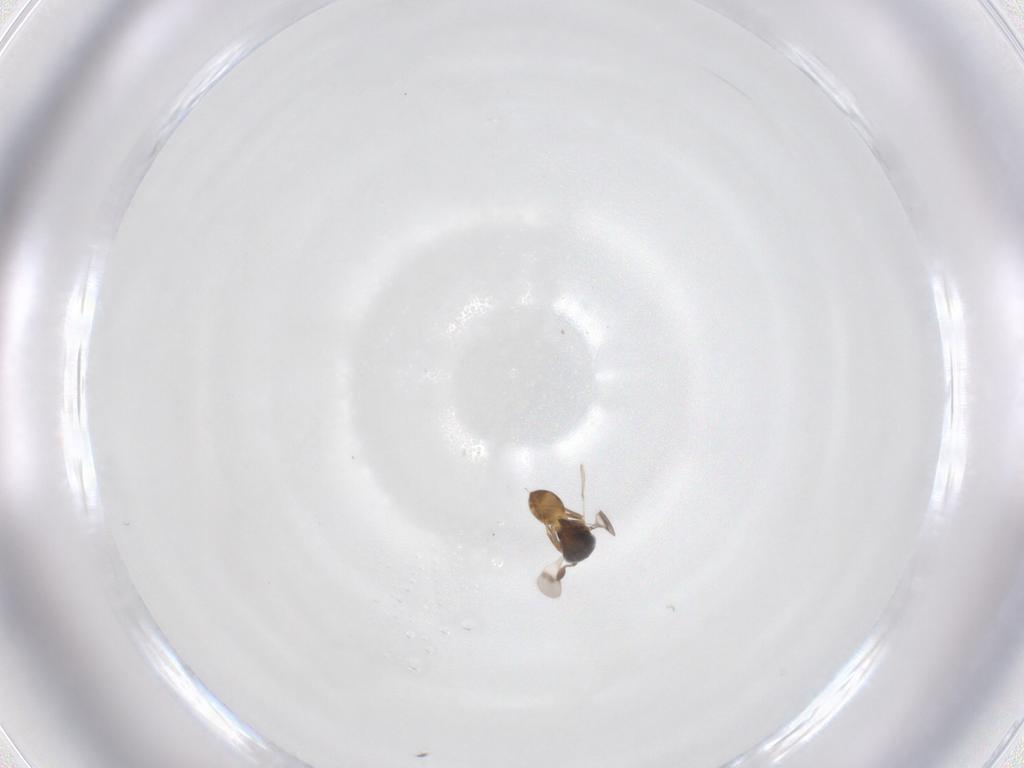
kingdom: Animalia
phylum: Arthropoda
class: Insecta
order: Hymenoptera
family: Scelionidae
